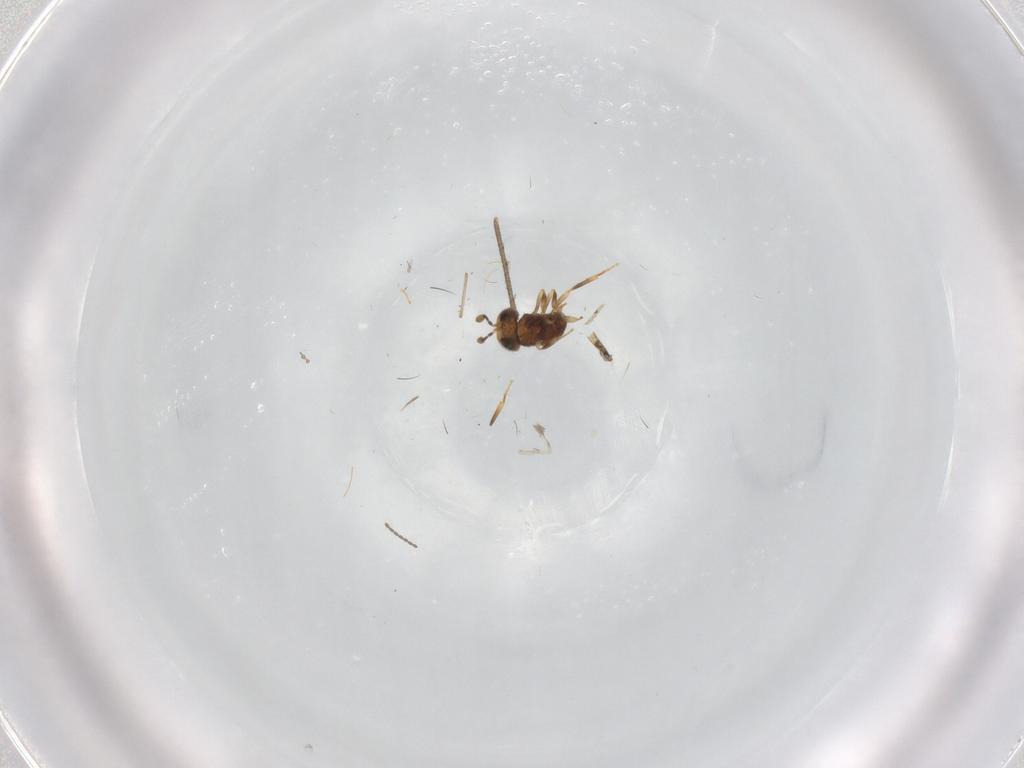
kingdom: Animalia
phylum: Arthropoda
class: Insecta
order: Hymenoptera
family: Scelionidae
